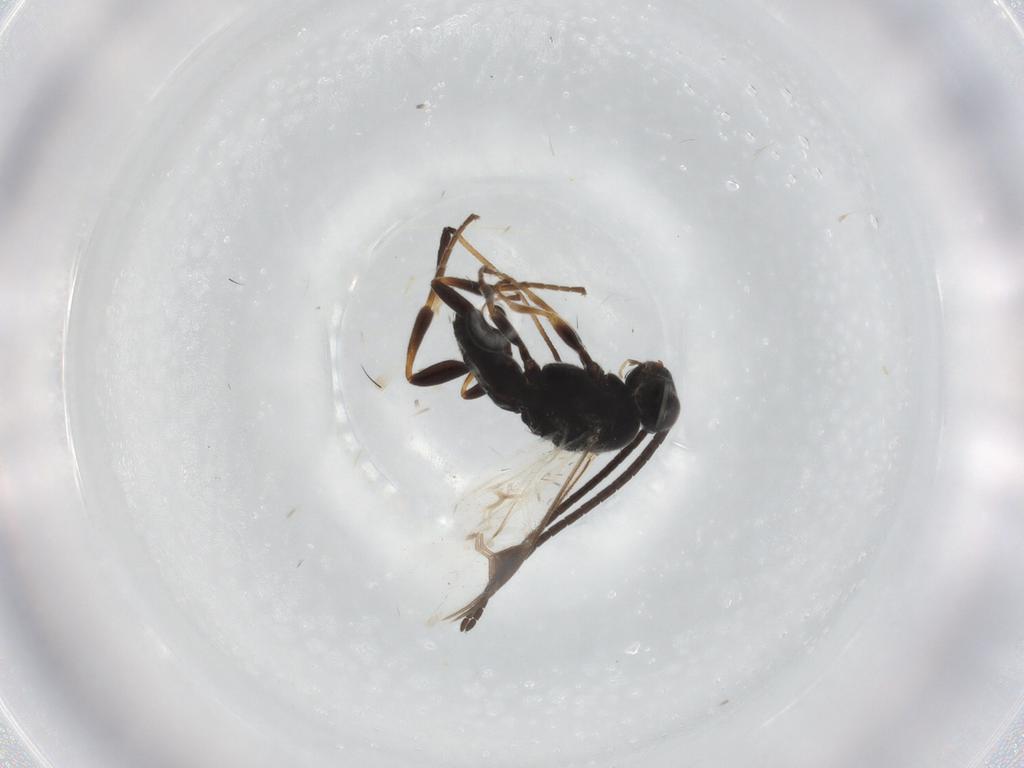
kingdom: Animalia
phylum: Arthropoda
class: Insecta
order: Hymenoptera
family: Braconidae
